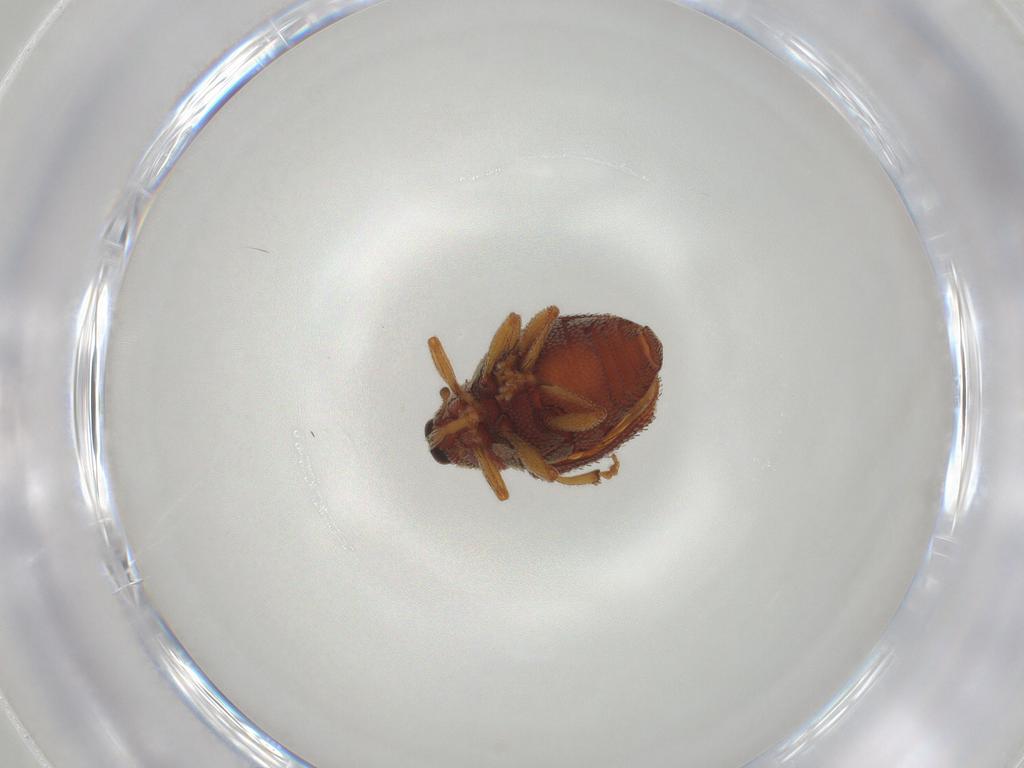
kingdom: Animalia
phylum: Arthropoda
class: Insecta
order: Coleoptera
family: Curculionidae
